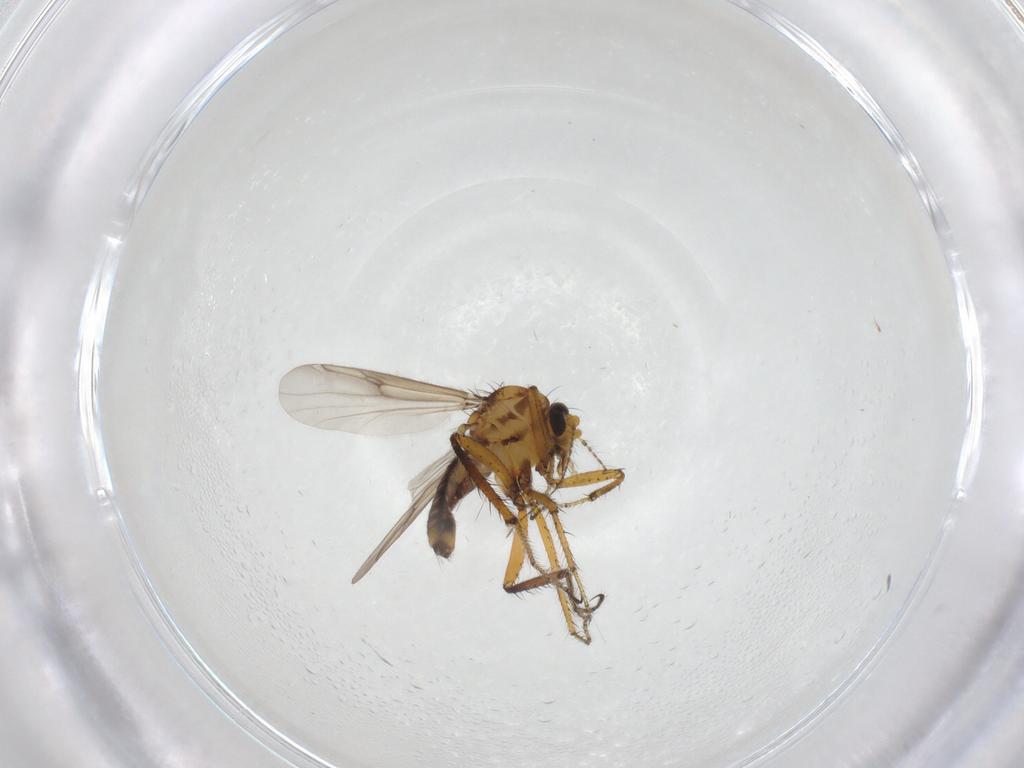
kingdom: Animalia
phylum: Arthropoda
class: Insecta
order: Diptera
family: Ceratopogonidae
